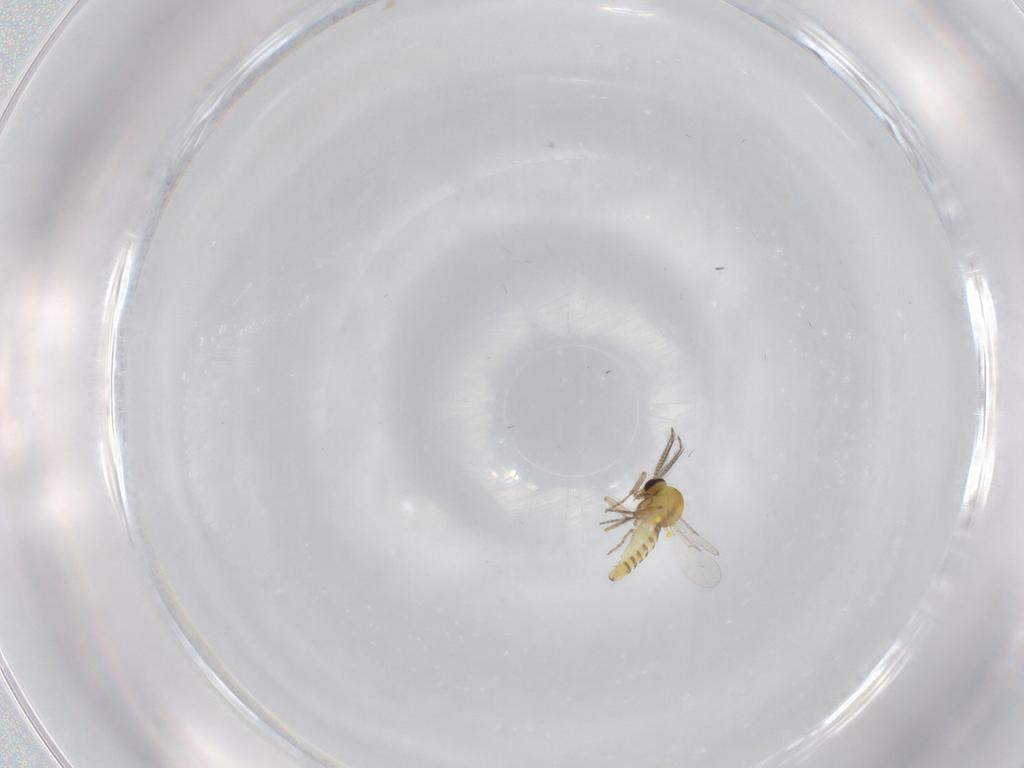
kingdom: Animalia
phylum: Arthropoda
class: Insecta
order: Diptera
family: Ceratopogonidae
